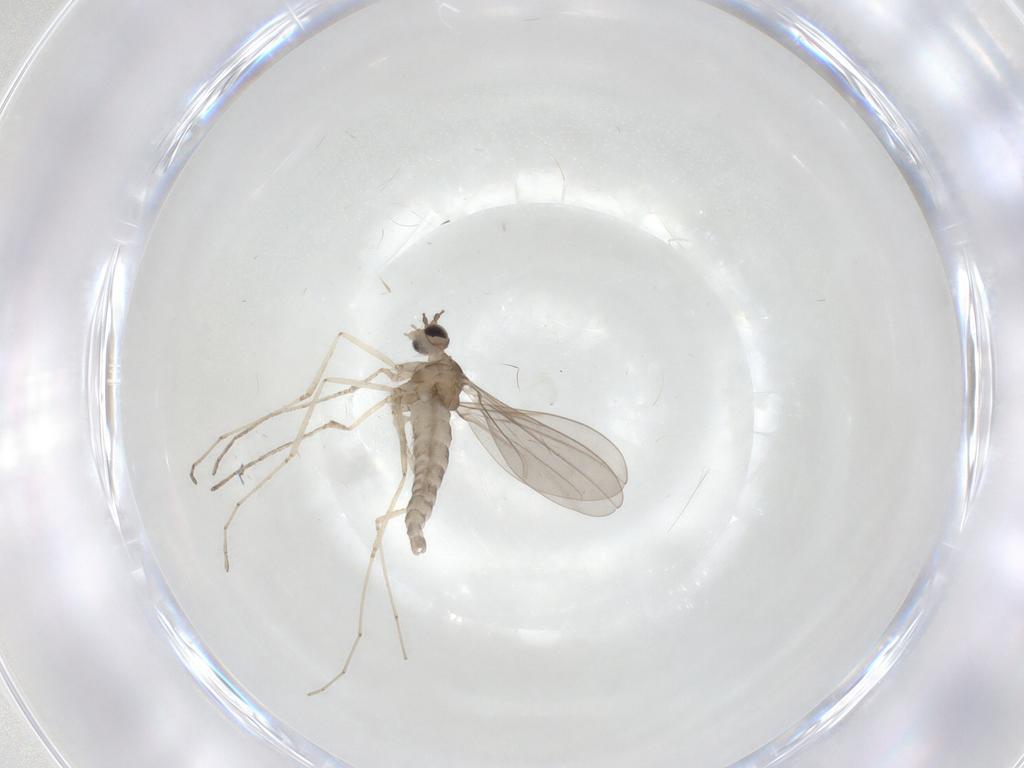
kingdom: Animalia
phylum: Arthropoda
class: Insecta
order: Diptera
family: Cecidomyiidae
